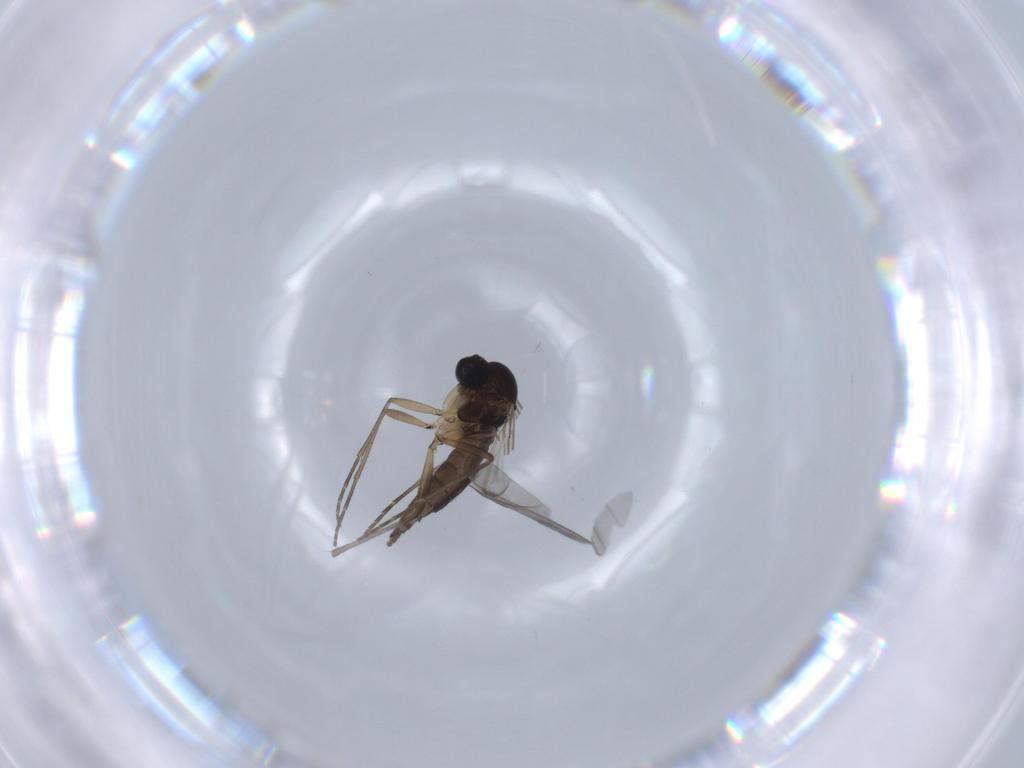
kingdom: Animalia
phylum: Arthropoda
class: Insecta
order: Diptera
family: Sciaridae
